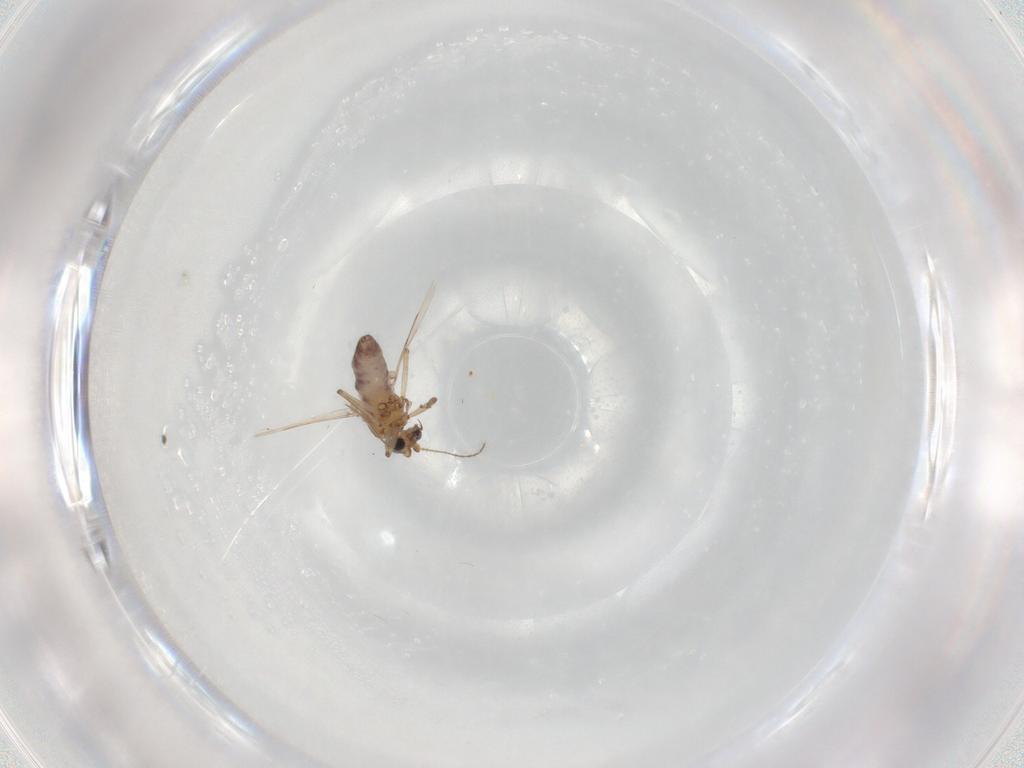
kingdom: Animalia
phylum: Arthropoda
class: Insecta
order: Diptera
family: Ceratopogonidae
